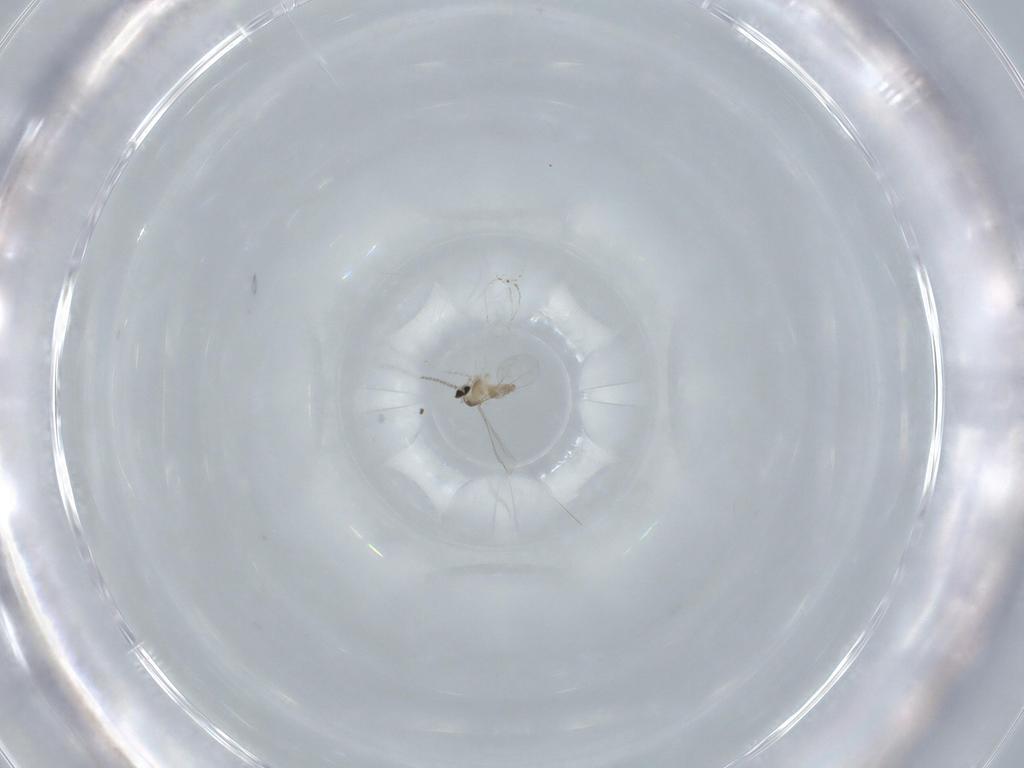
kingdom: Animalia
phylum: Arthropoda
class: Insecta
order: Diptera
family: Cecidomyiidae
